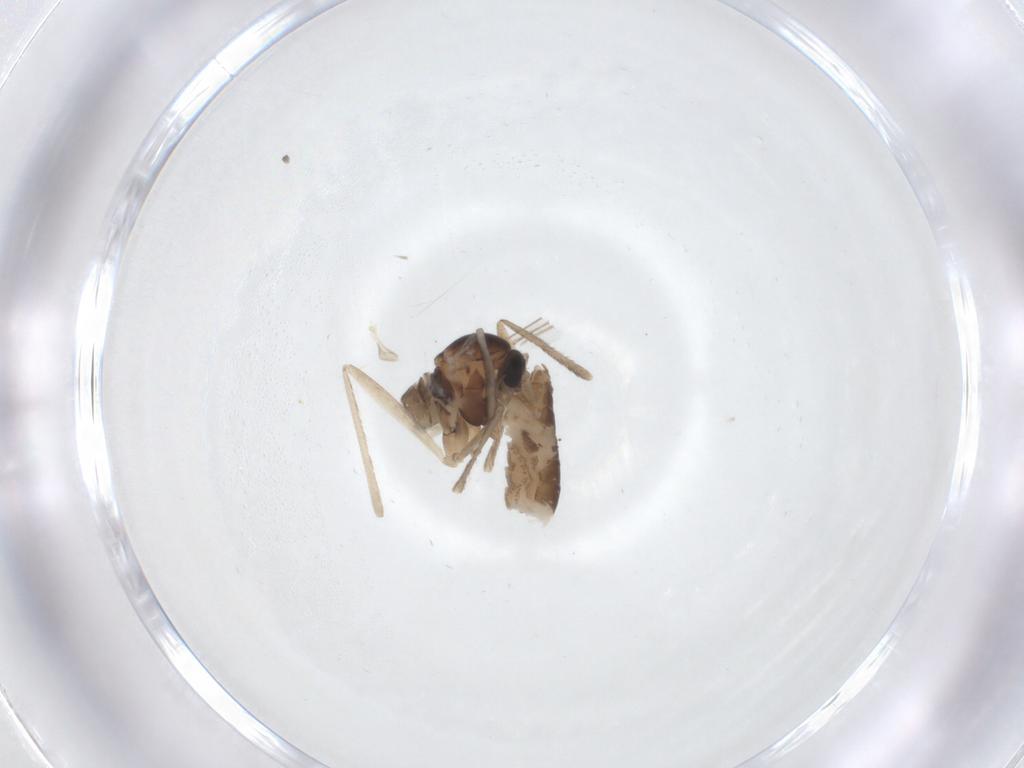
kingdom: Animalia
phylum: Arthropoda
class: Insecta
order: Diptera
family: Cecidomyiidae
